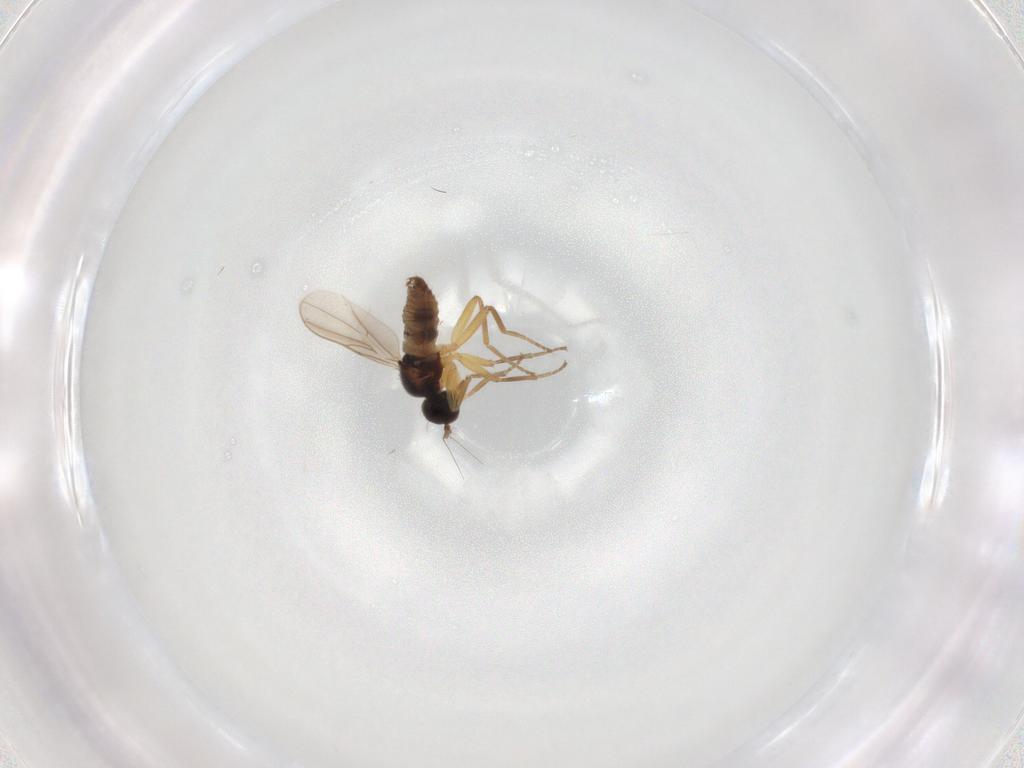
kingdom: Animalia
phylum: Arthropoda
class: Insecta
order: Diptera
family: Hybotidae
